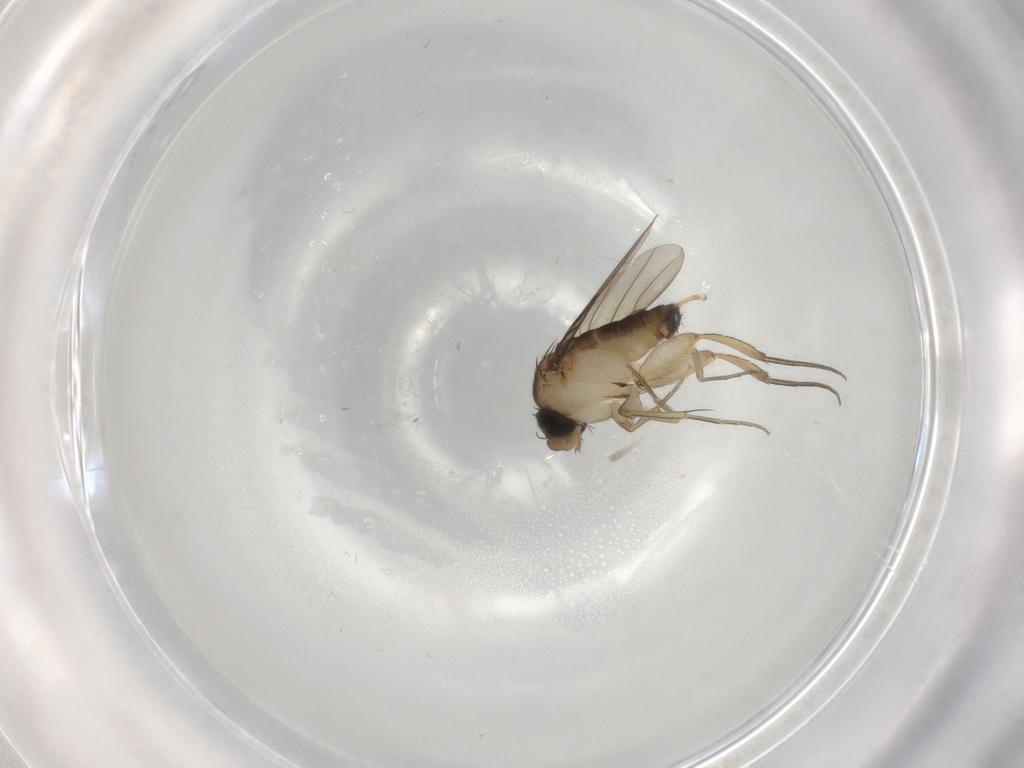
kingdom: Animalia
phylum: Arthropoda
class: Insecta
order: Diptera
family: Phoridae
